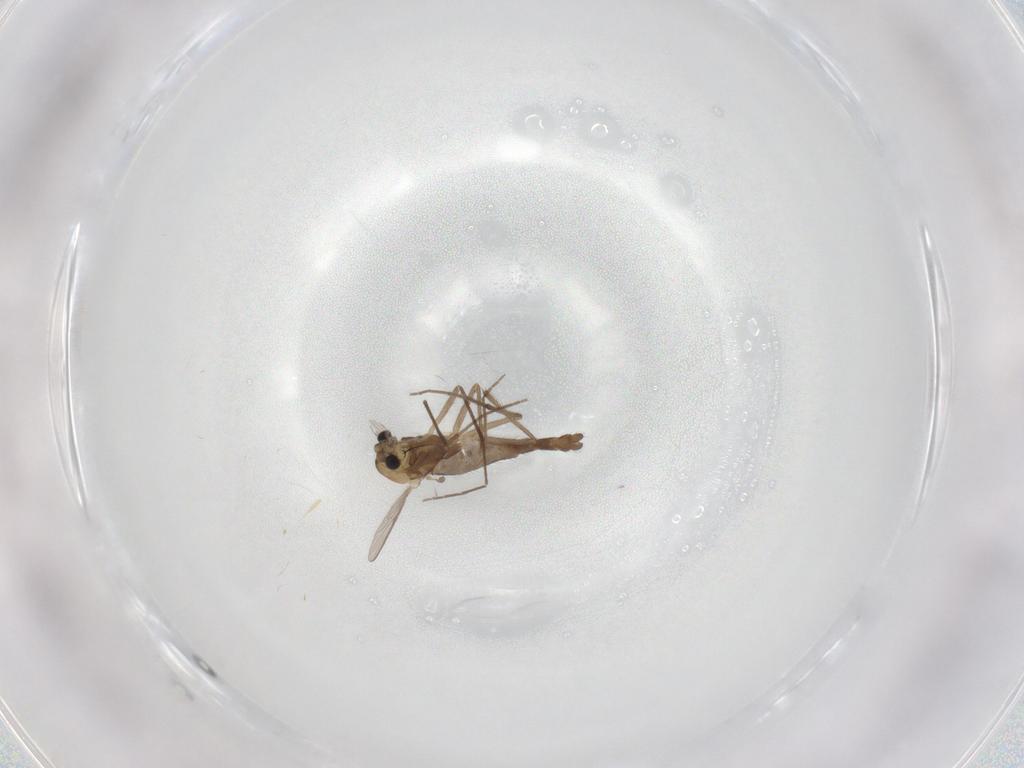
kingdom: Animalia
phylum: Arthropoda
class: Insecta
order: Diptera
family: Chironomidae
